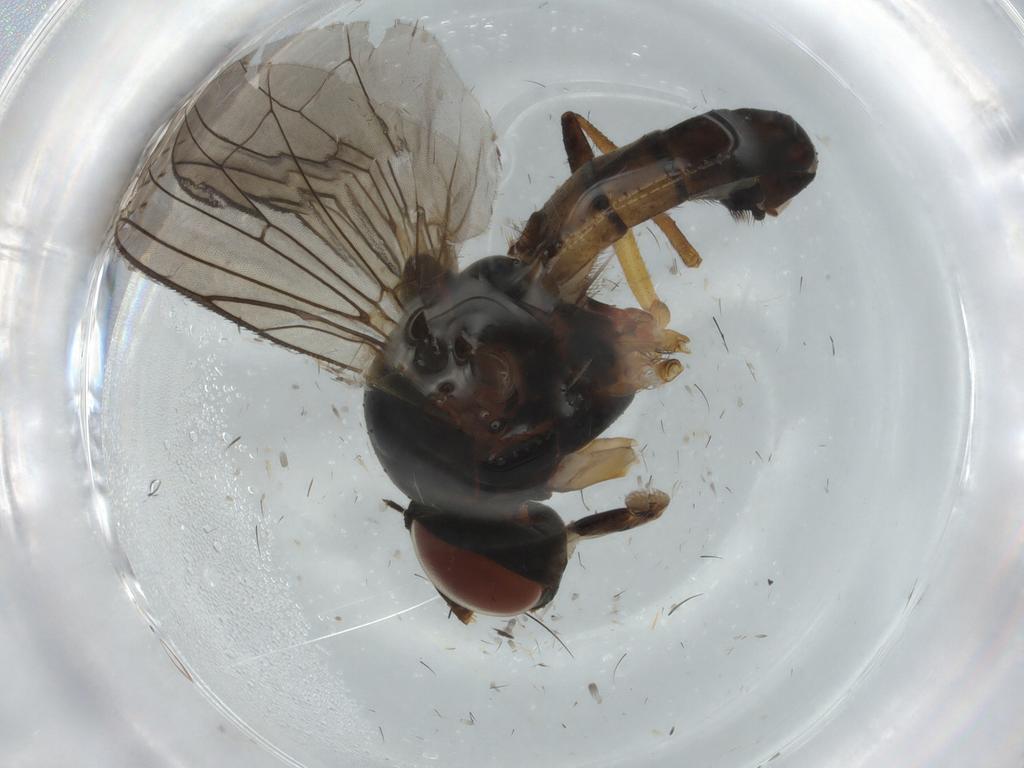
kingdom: Animalia
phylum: Arthropoda
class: Insecta
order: Diptera
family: Anthomyiidae
